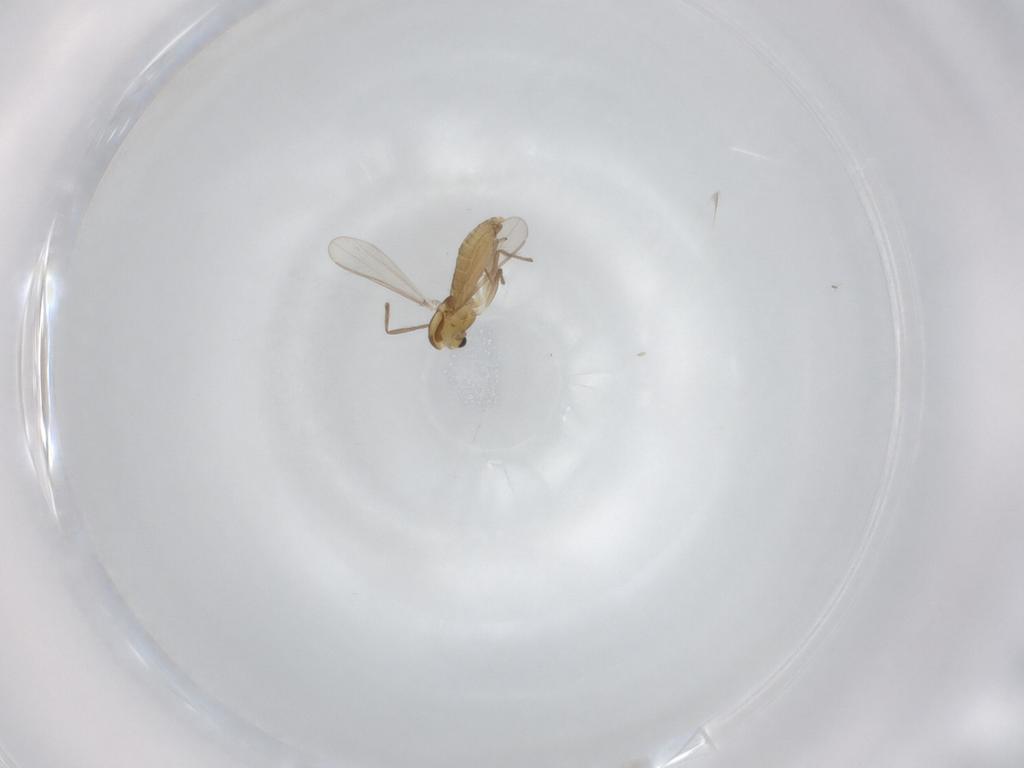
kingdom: Animalia
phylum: Arthropoda
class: Insecta
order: Diptera
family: Chironomidae
